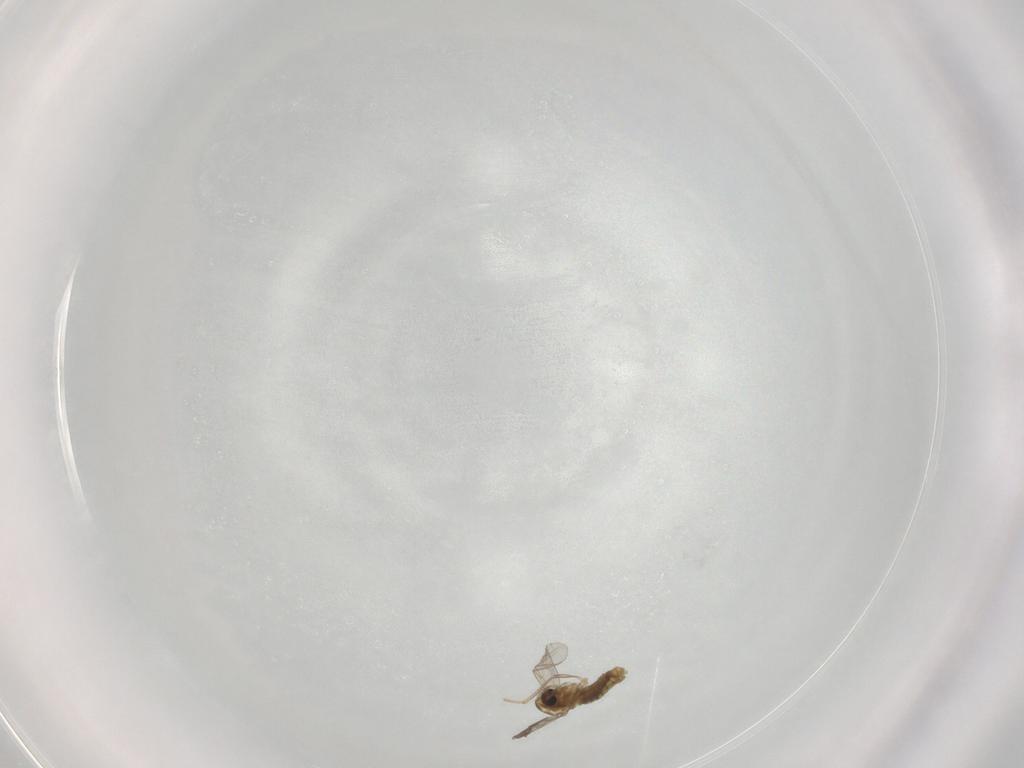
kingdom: Animalia
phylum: Arthropoda
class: Insecta
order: Diptera
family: Chironomidae
